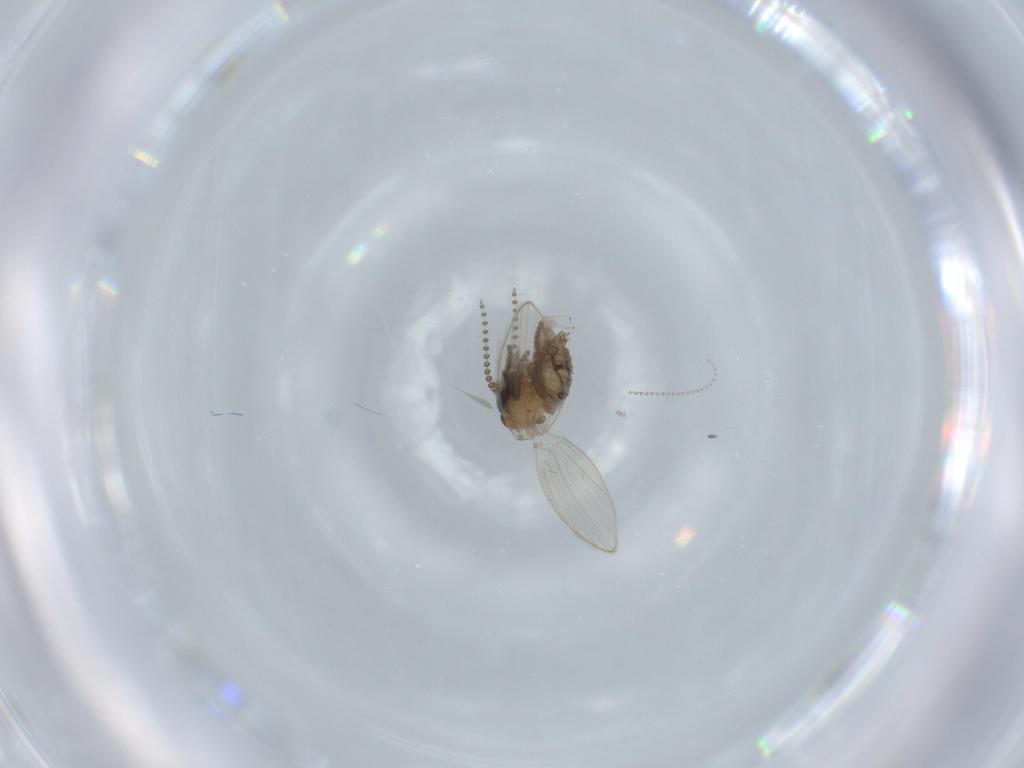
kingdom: Animalia
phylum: Arthropoda
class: Insecta
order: Diptera
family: Psychodidae
